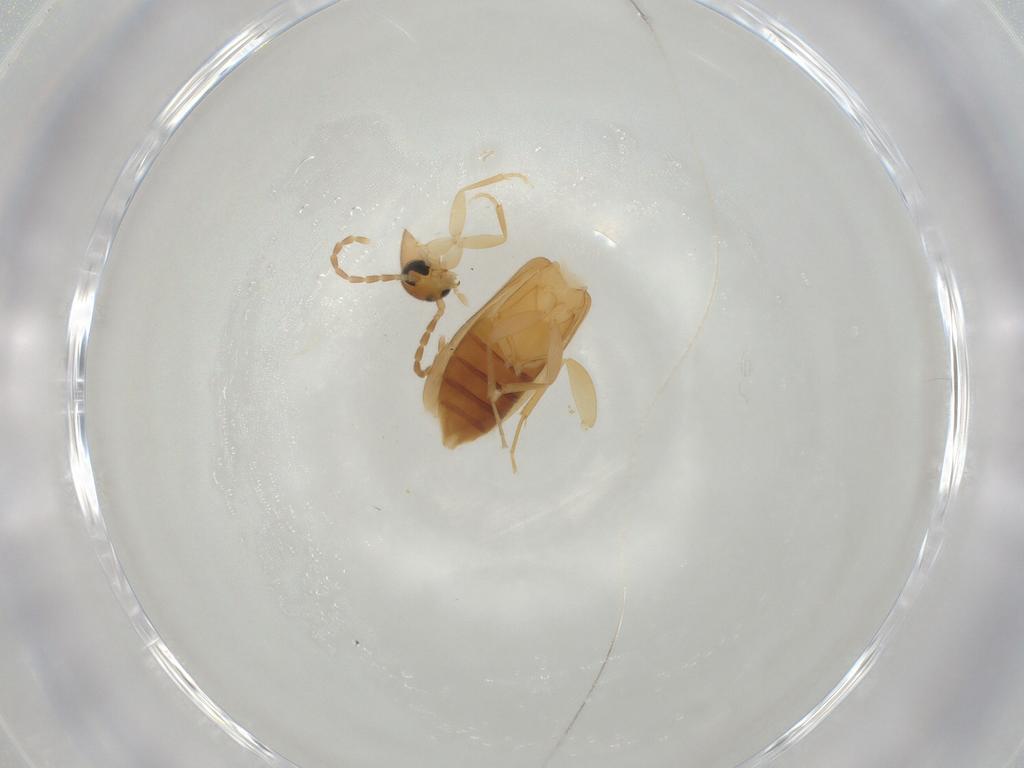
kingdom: Animalia
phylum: Arthropoda
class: Insecta
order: Coleoptera
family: Scraptiidae
